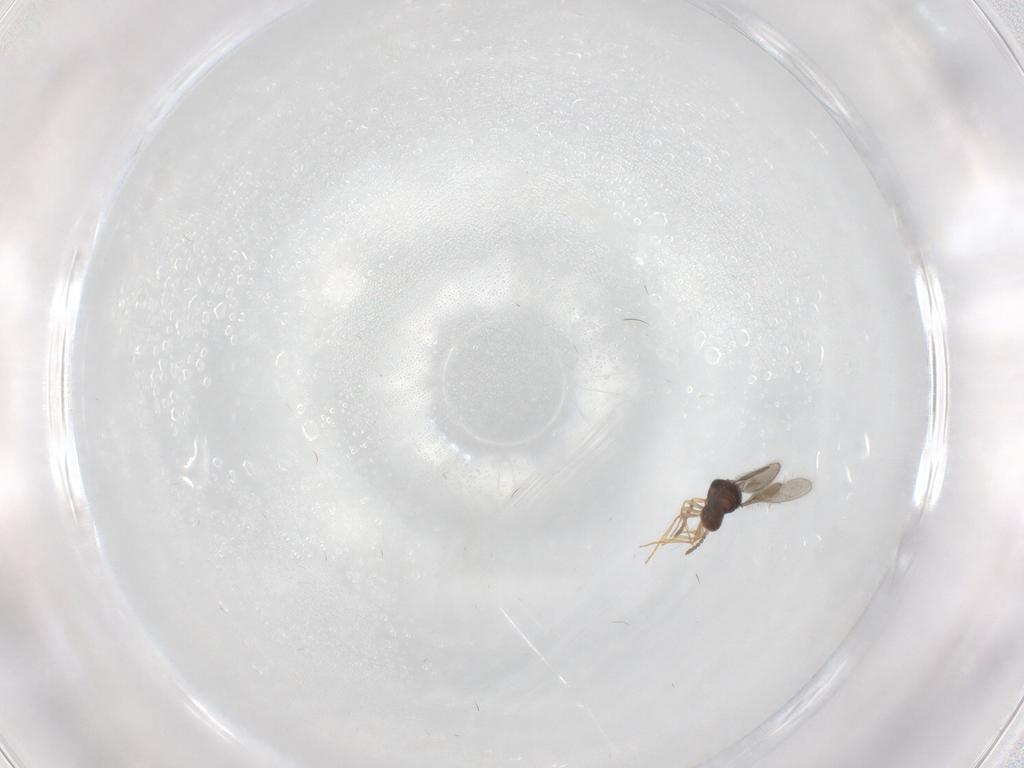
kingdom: Animalia
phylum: Arthropoda
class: Insecta
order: Hymenoptera
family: Scelionidae
